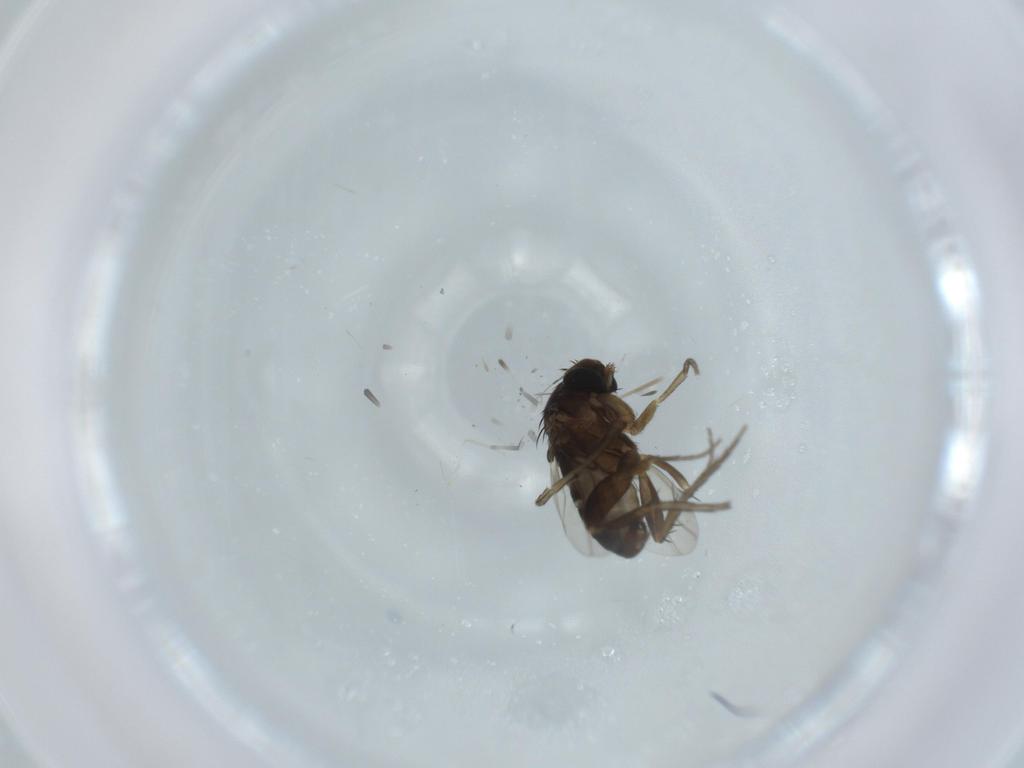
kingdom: Animalia
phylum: Arthropoda
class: Insecta
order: Diptera
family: Phoridae
